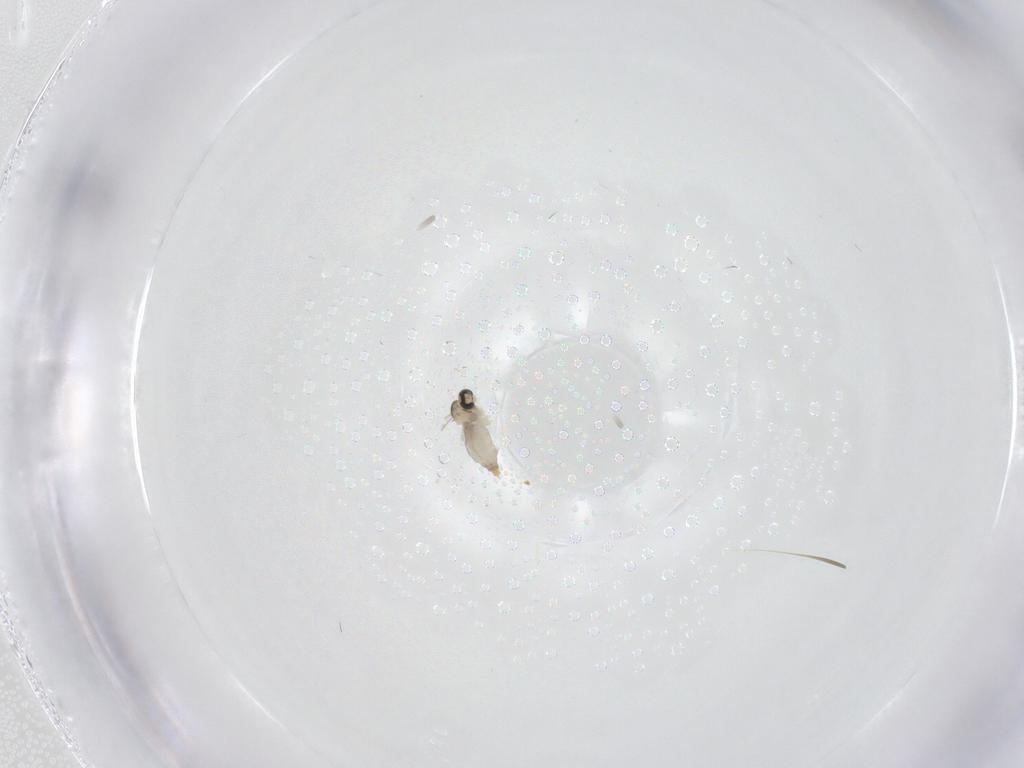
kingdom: Animalia
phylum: Arthropoda
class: Insecta
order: Diptera
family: Cecidomyiidae
